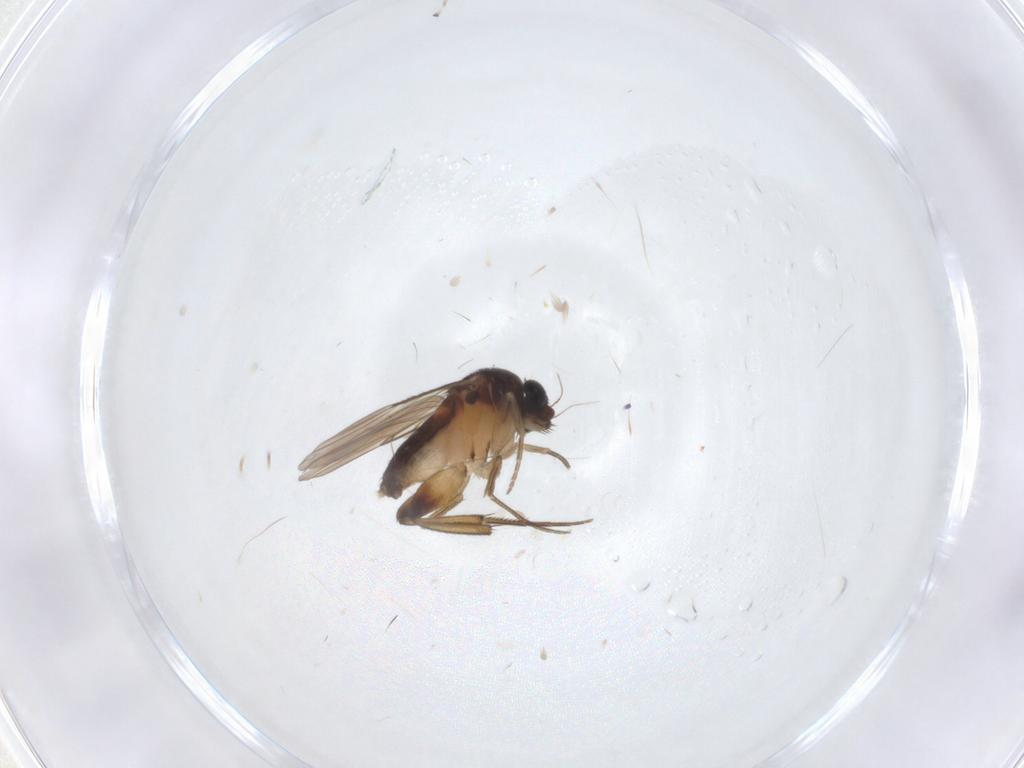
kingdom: Animalia
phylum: Arthropoda
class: Insecta
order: Diptera
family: Phoridae
